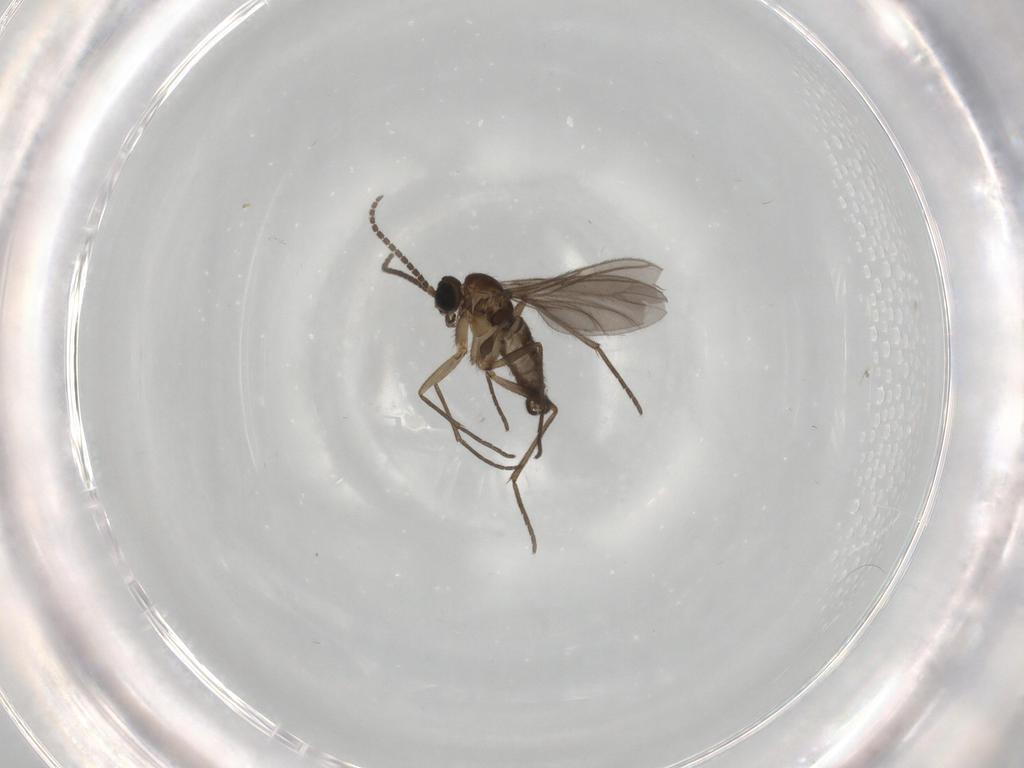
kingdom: Animalia
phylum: Arthropoda
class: Insecta
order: Diptera
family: Sciaridae
